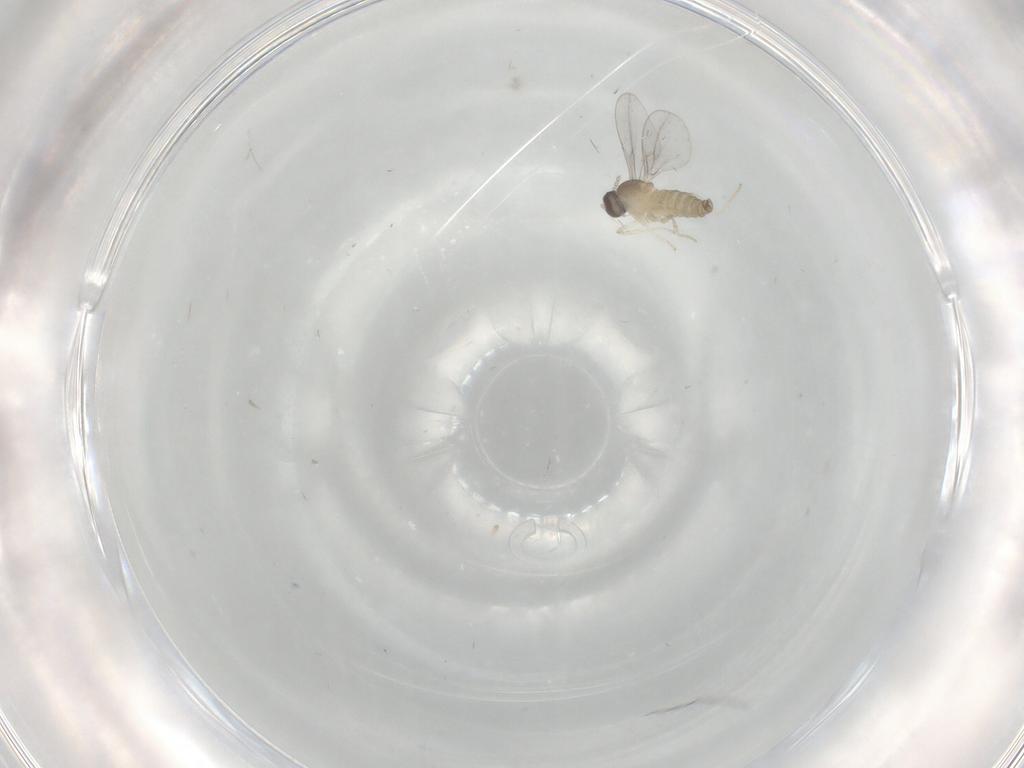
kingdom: Animalia
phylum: Arthropoda
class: Insecta
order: Diptera
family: Cecidomyiidae
